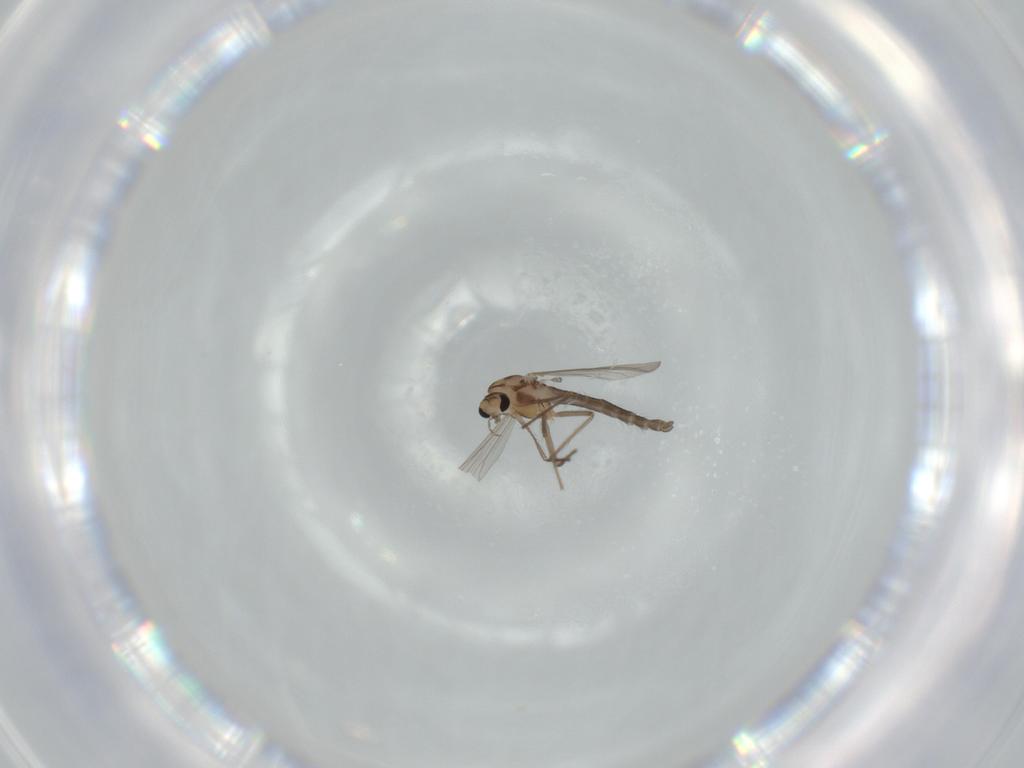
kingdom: Animalia
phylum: Arthropoda
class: Insecta
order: Diptera
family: Chironomidae
